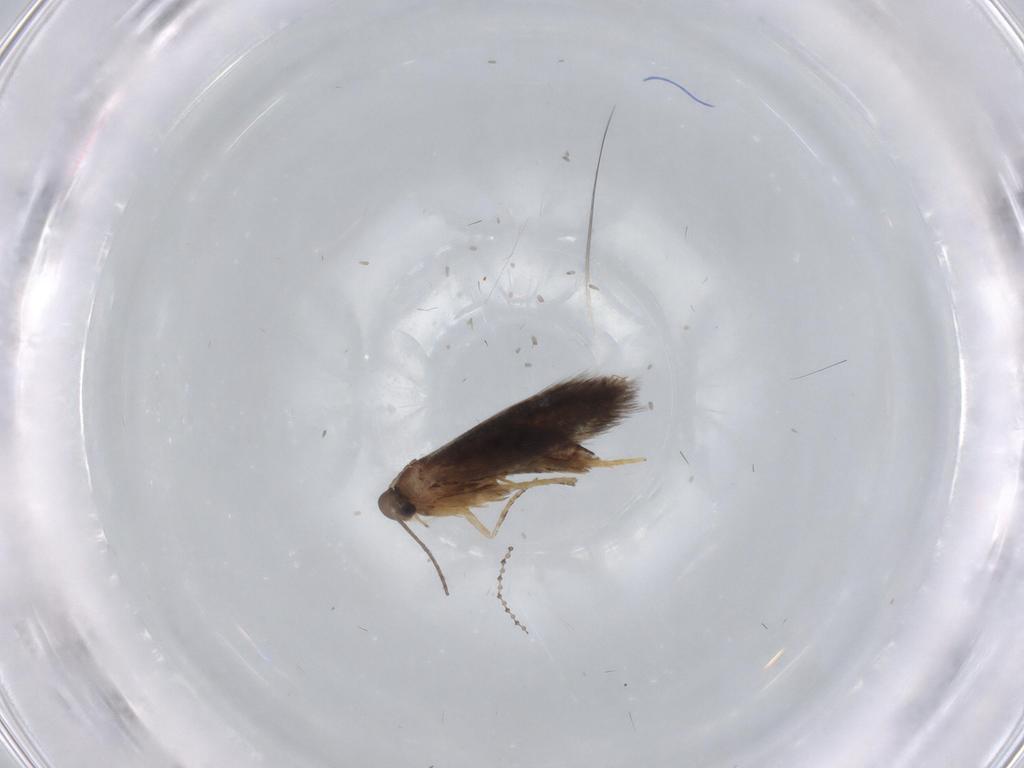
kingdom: Animalia
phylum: Arthropoda
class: Insecta
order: Lepidoptera
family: Heliozelidae
